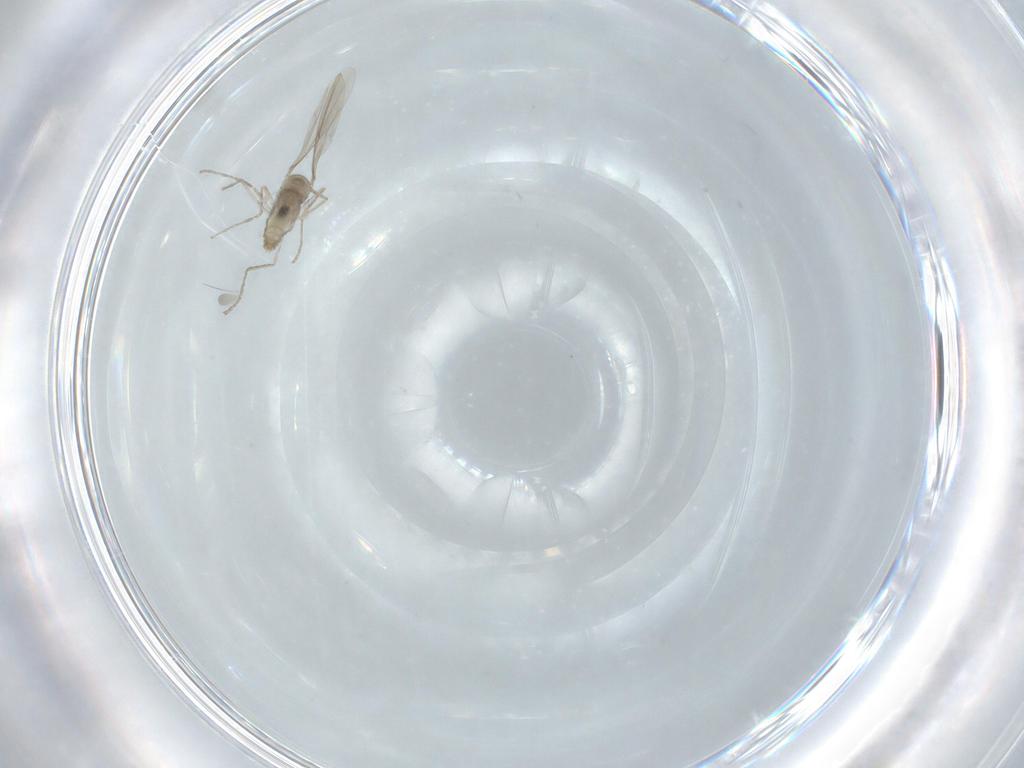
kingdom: Animalia
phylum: Arthropoda
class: Insecta
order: Diptera
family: Cecidomyiidae
